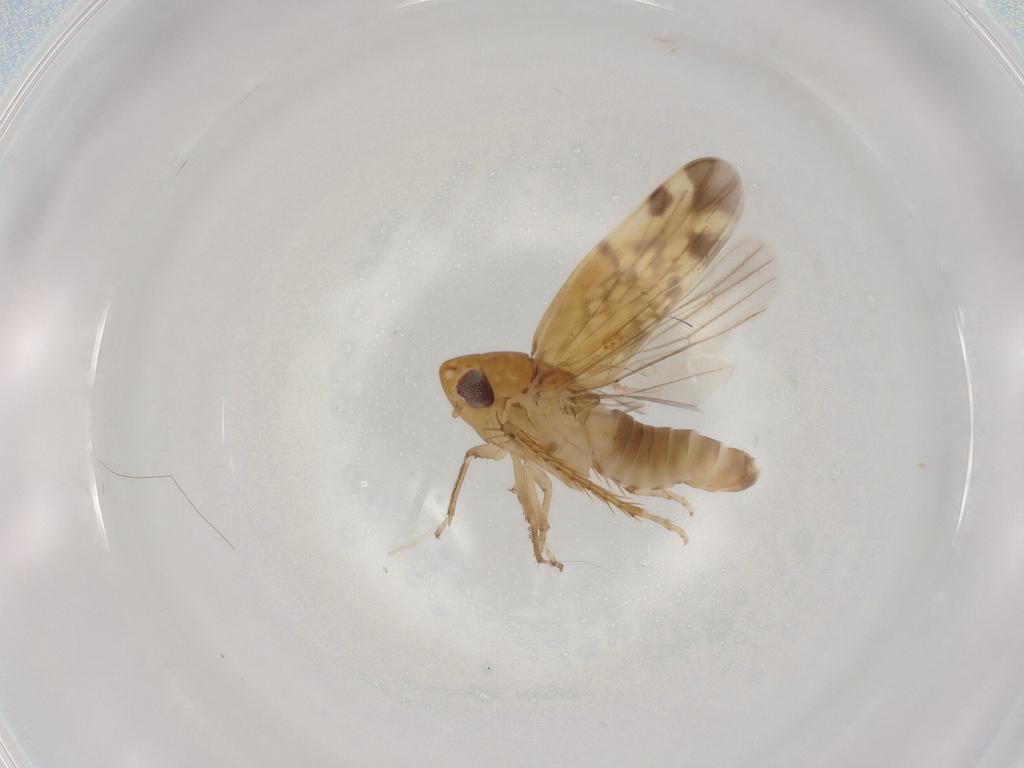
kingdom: Animalia
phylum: Arthropoda
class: Insecta
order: Hemiptera
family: Cicadellidae
